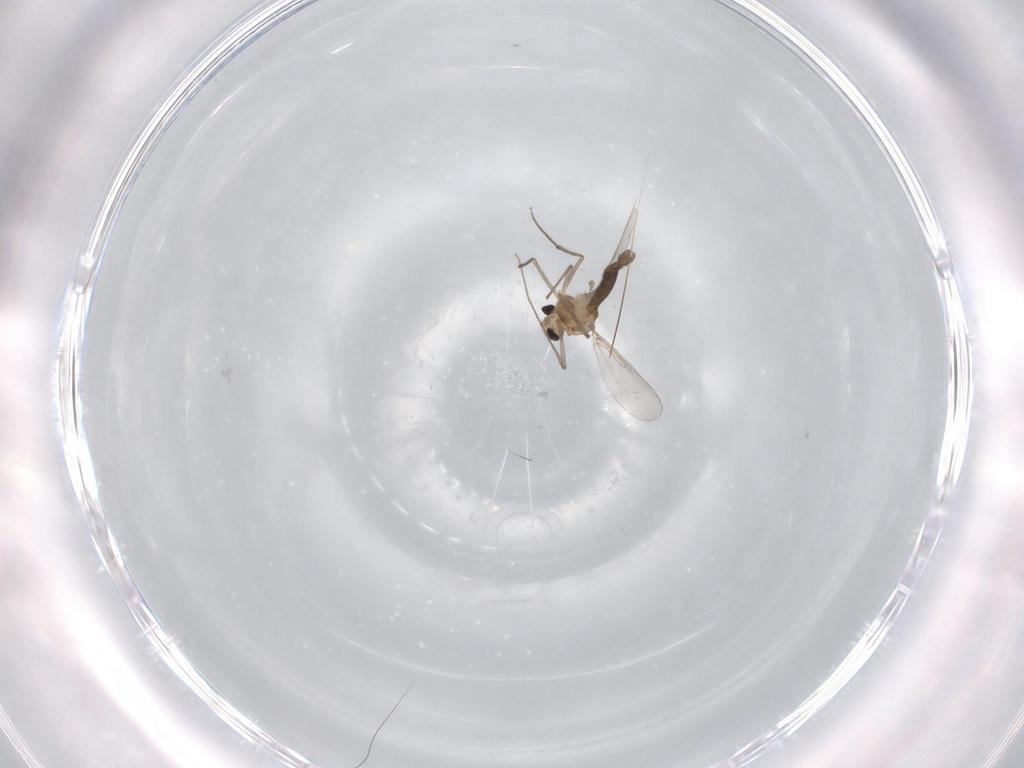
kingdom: Animalia
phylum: Arthropoda
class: Insecta
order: Diptera
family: Chironomidae
